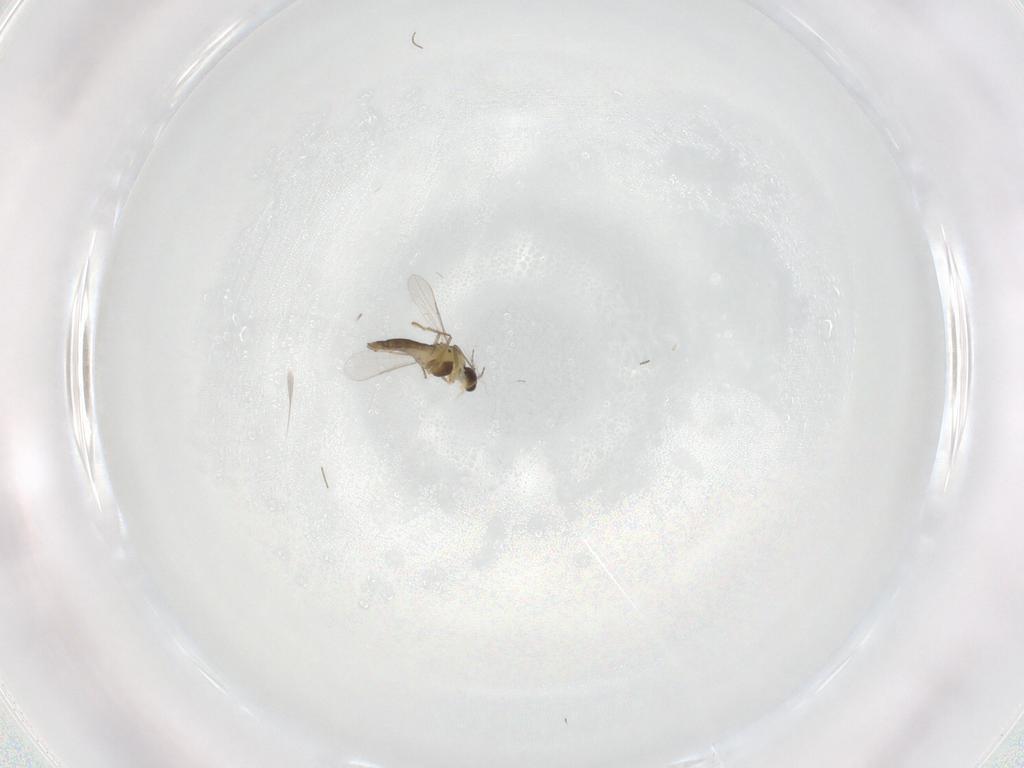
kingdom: Animalia
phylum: Arthropoda
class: Insecta
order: Diptera
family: Chironomidae
